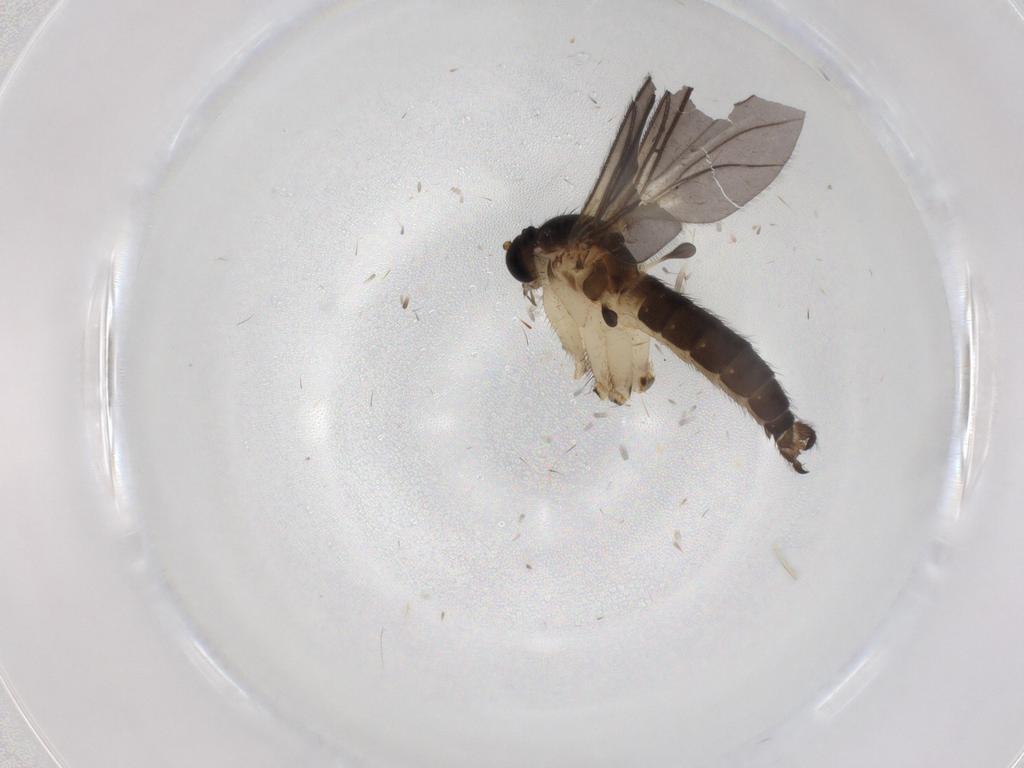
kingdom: Animalia
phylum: Arthropoda
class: Insecta
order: Diptera
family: Sciaridae
